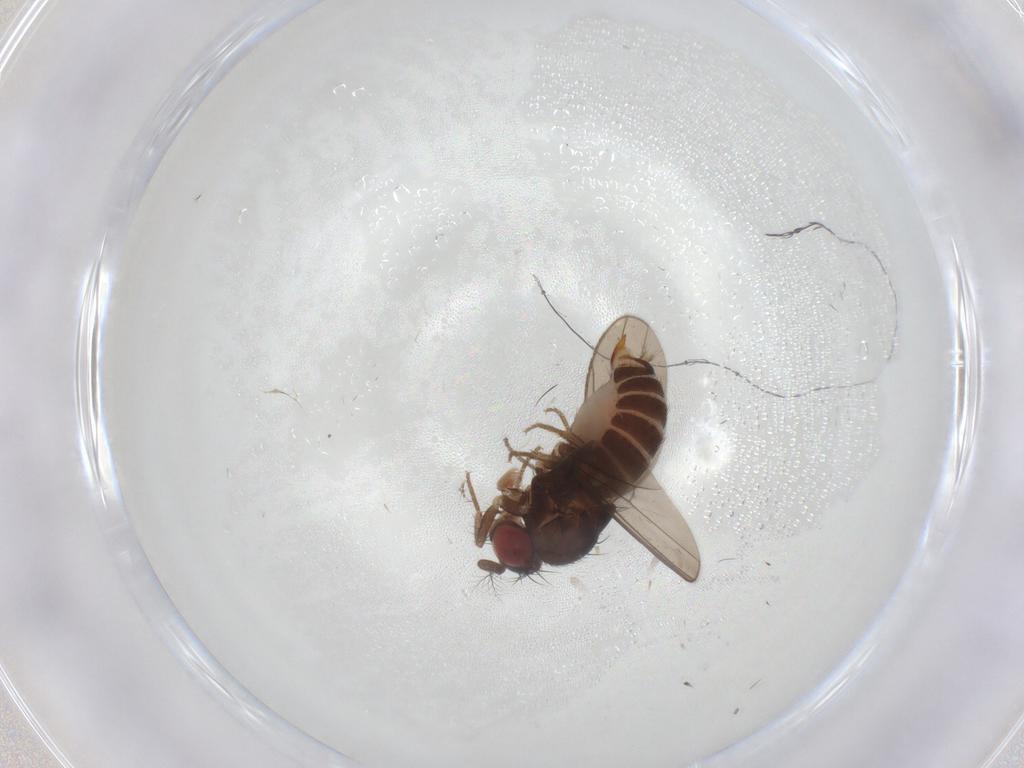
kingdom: Animalia
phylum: Arthropoda
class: Insecta
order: Diptera
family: Drosophilidae
